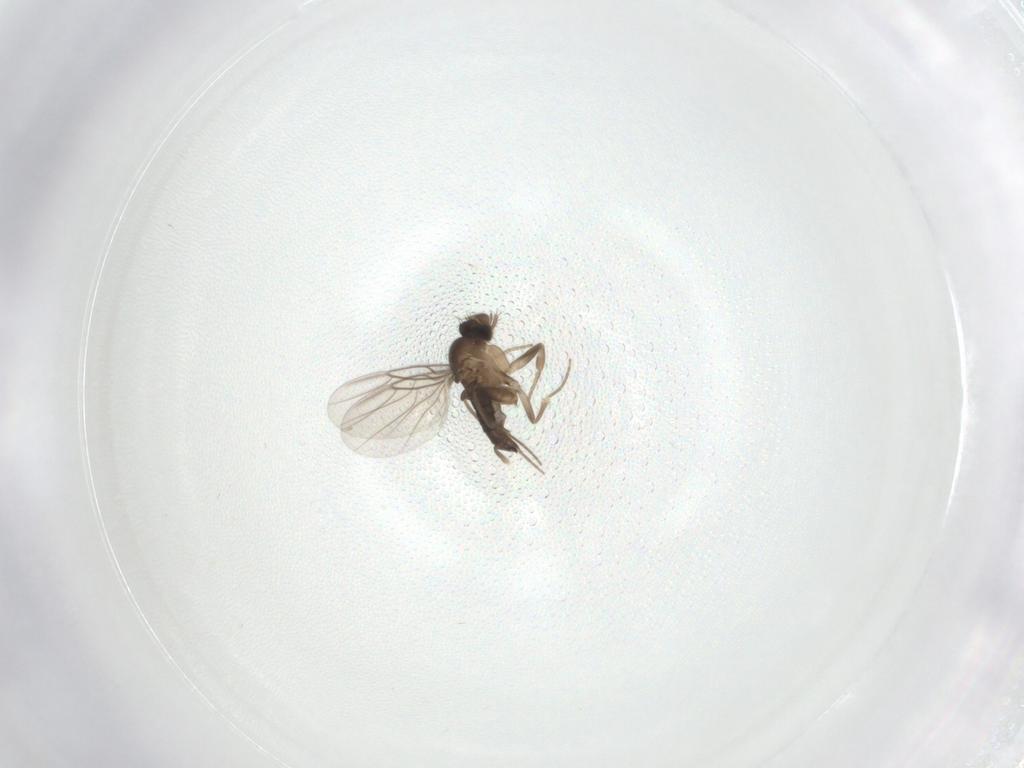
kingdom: Animalia
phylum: Arthropoda
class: Insecta
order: Diptera
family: Phoridae
